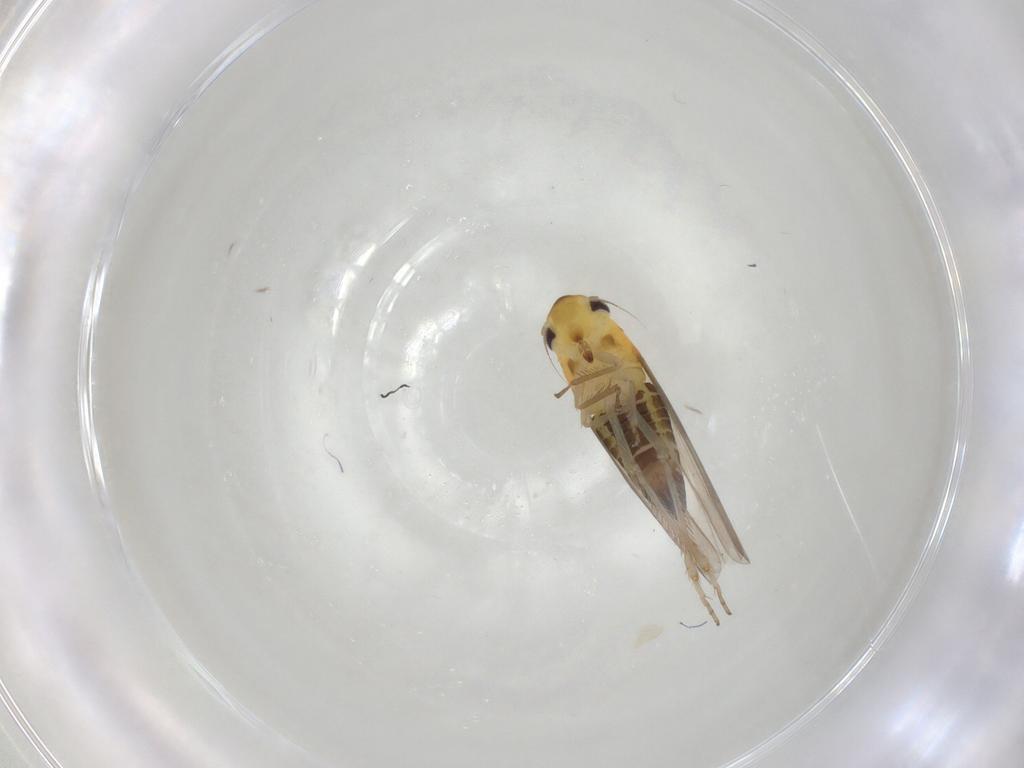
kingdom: Animalia
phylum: Arthropoda
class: Insecta
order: Hemiptera
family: Cicadellidae
